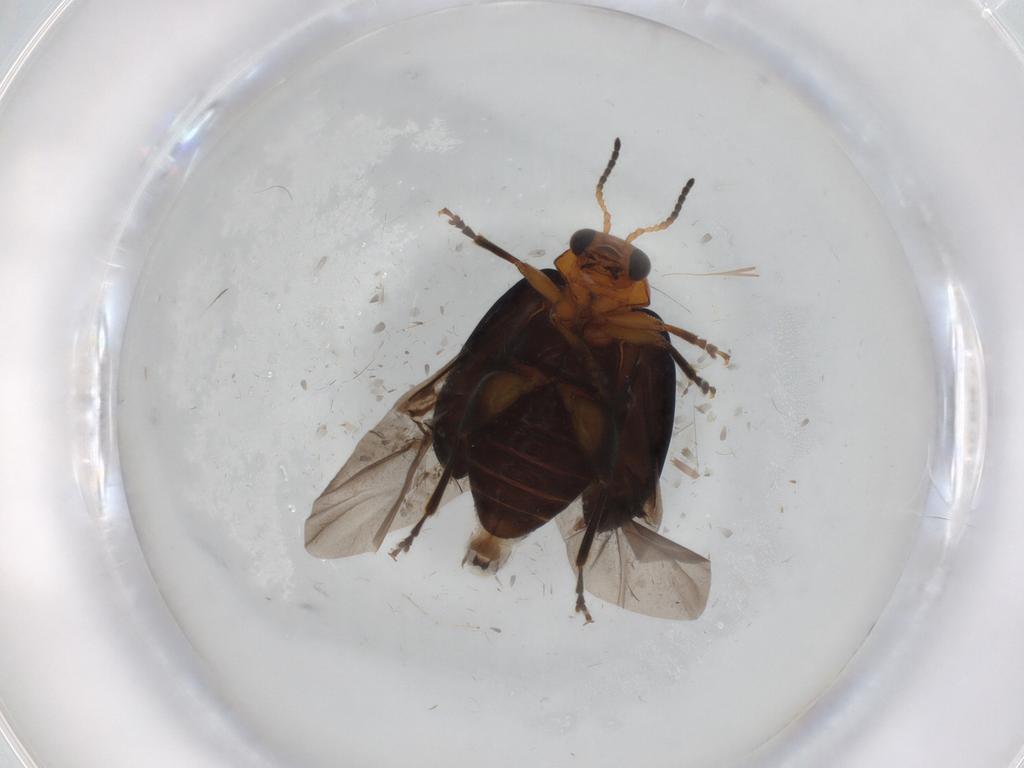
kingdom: Animalia
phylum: Arthropoda
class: Insecta
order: Coleoptera
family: Chrysomelidae
